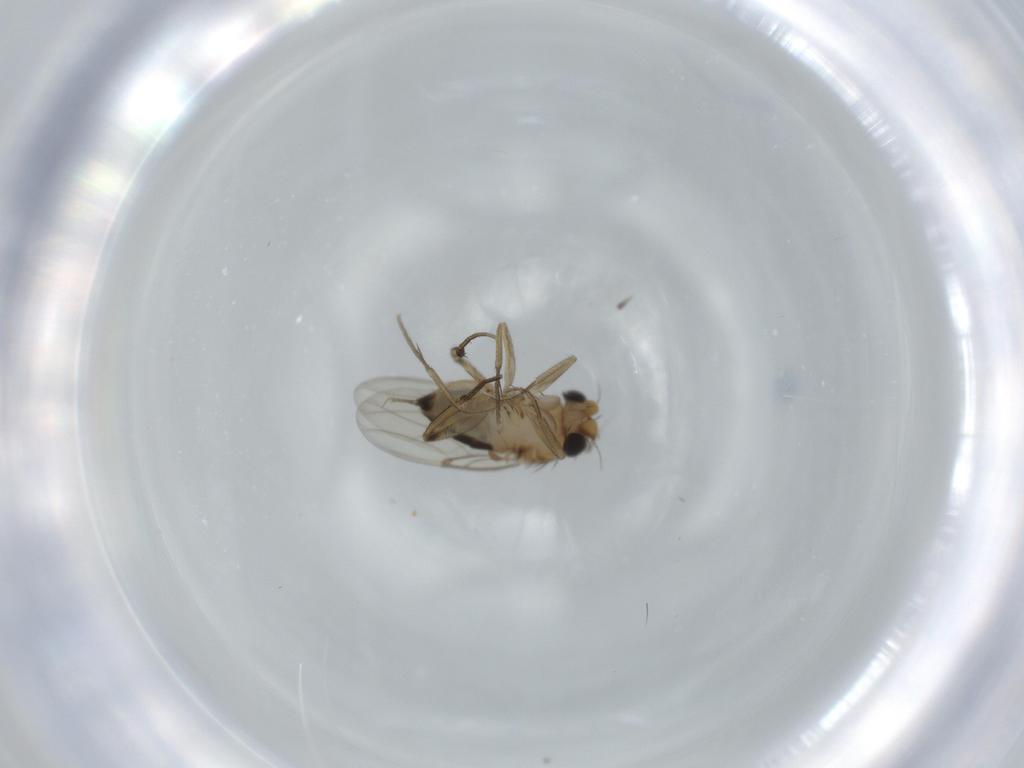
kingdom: Animalia
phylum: Arthropoda
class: Insecta
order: Diptera
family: Sciaridae
